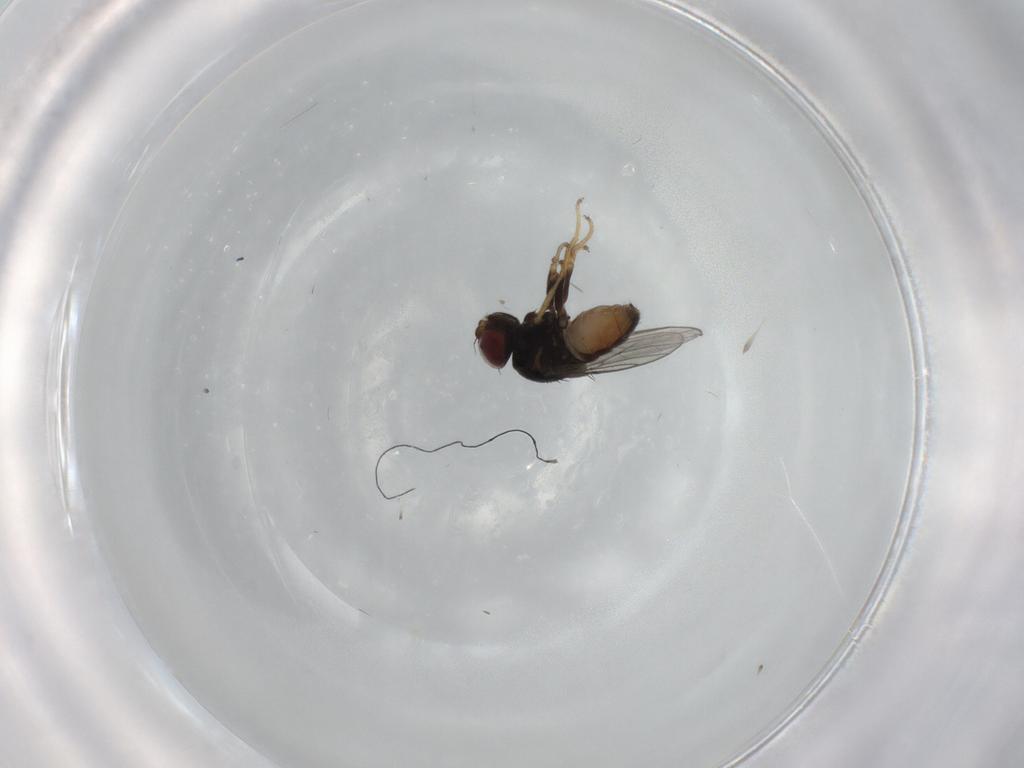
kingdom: Animalia
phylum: Arthropoda
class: Insecta
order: Diptera
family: Chloropidae
